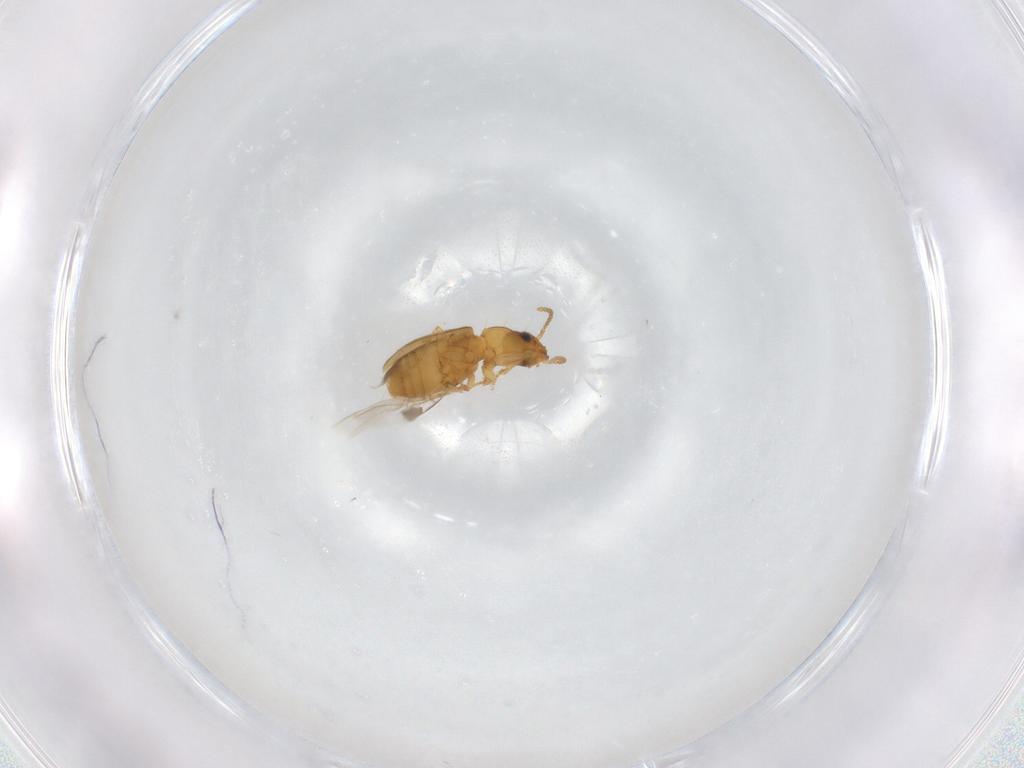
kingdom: Animalia
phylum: Arthropoda
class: Insecta
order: Coleoptera
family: Carabidae
